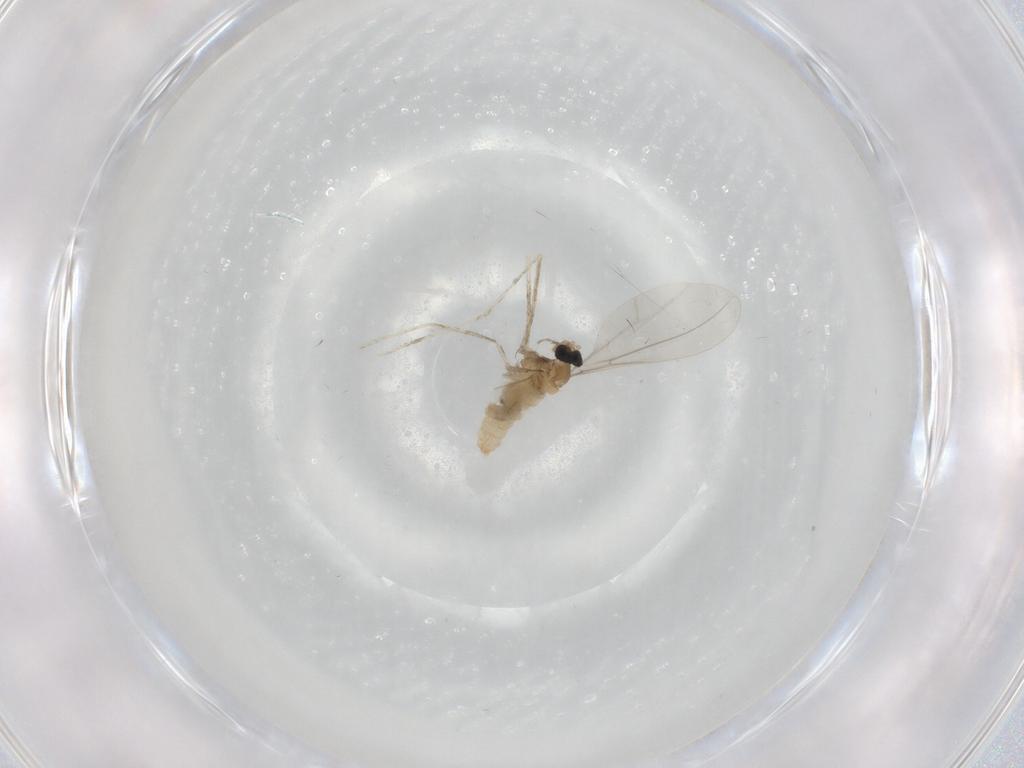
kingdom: Animalia
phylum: Arthropoda
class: Insecta
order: Diptera
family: Cecidomyiidae
